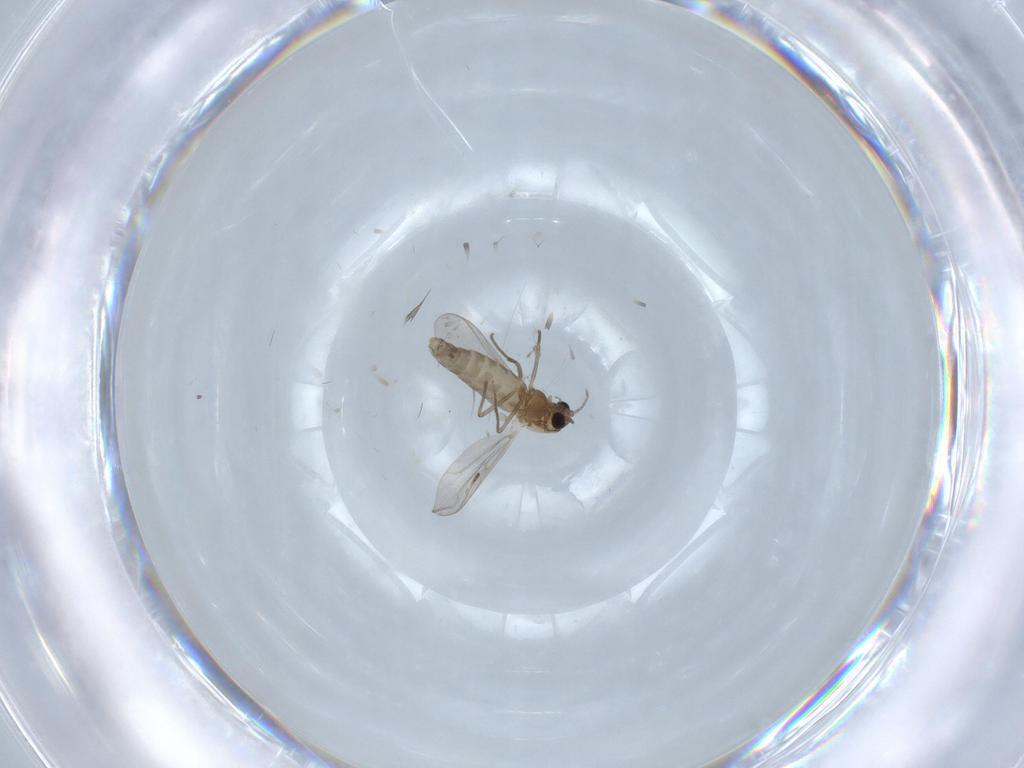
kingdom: Animalia
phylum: Arthropoda
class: Insecta
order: Diptera
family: Chironomidae
